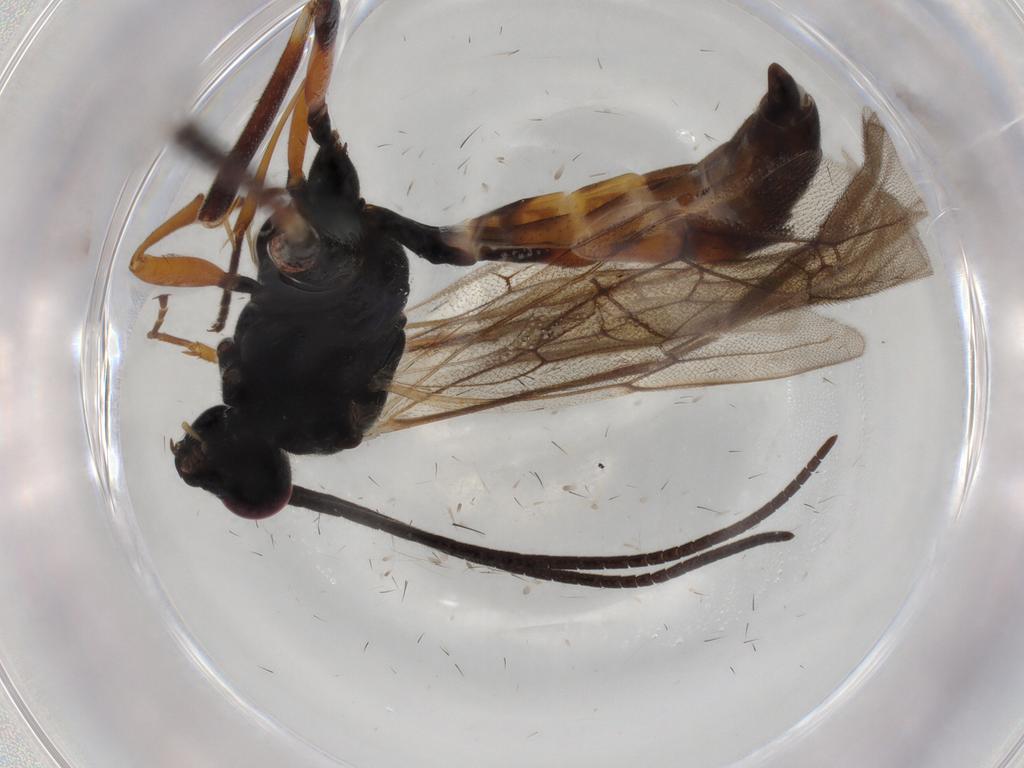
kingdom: Animalia
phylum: Arthropoda
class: Insecta
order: Hymenoptera
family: Ichneumonidae
